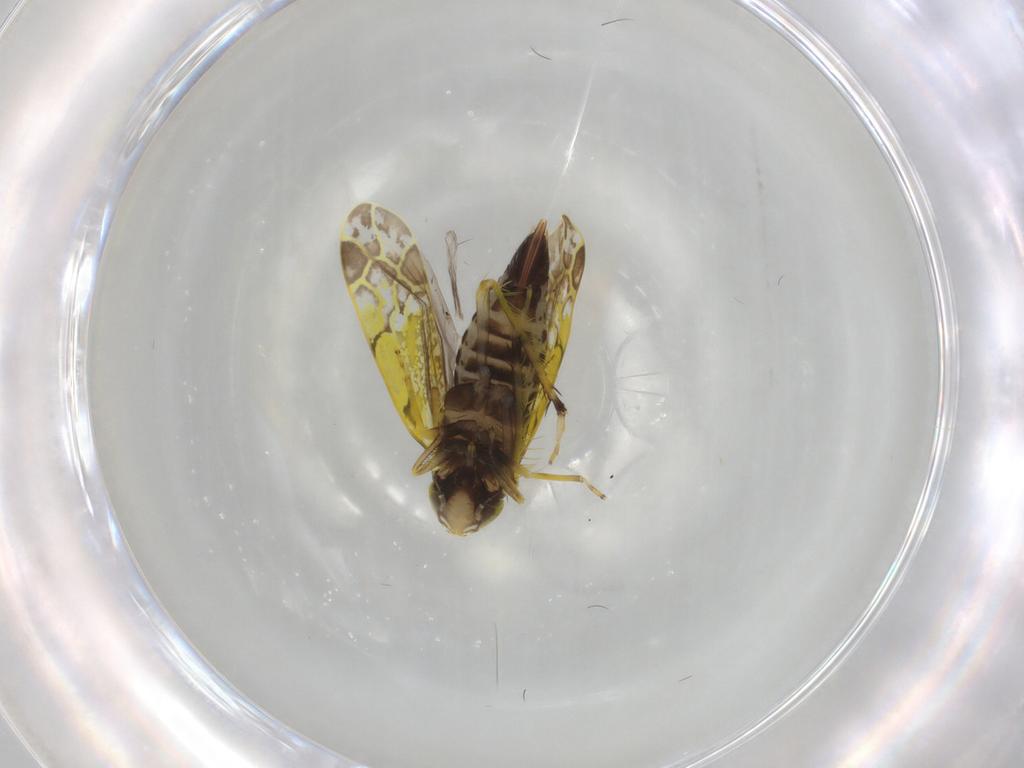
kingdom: Animalia
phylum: Arthropoda
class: Insecta
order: Hemiptera
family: Cicadellidae
